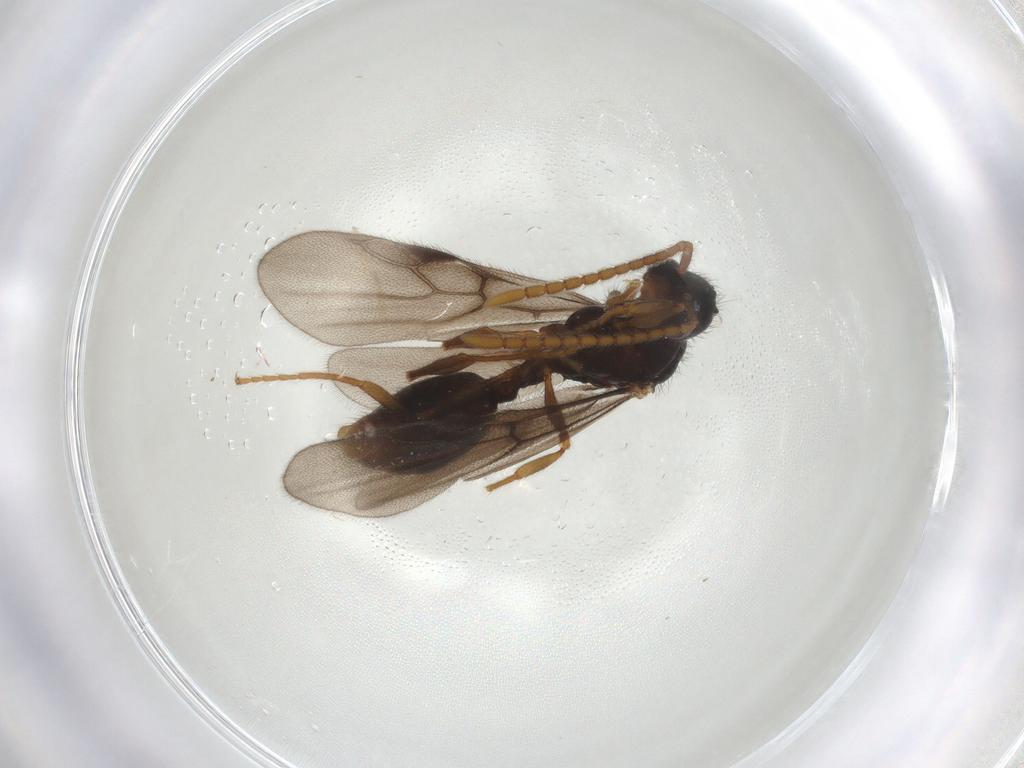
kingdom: Animalia
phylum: Arthropoda
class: Insecta
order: Hymenoptera
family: Formicidae
